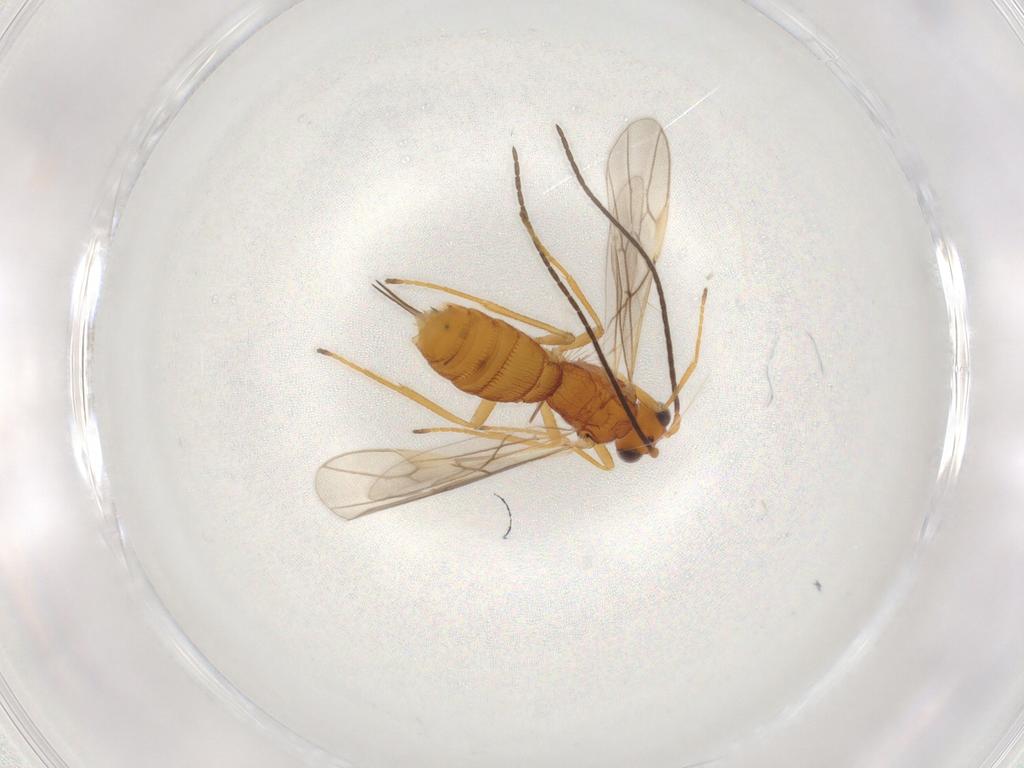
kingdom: Animalia
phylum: Arthropoda
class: Insecta
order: Hymenoptera
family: Braconidae
